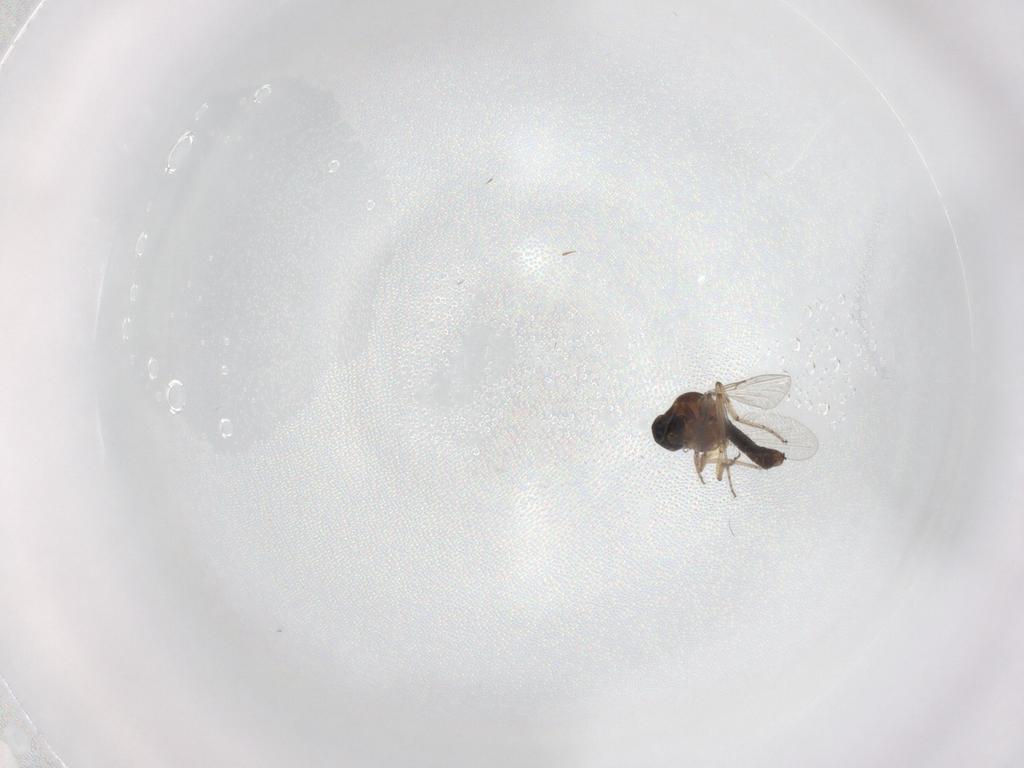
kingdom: Animalia
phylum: Arthropoda
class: Insecta
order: Diptera
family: Ceratopogonidae
